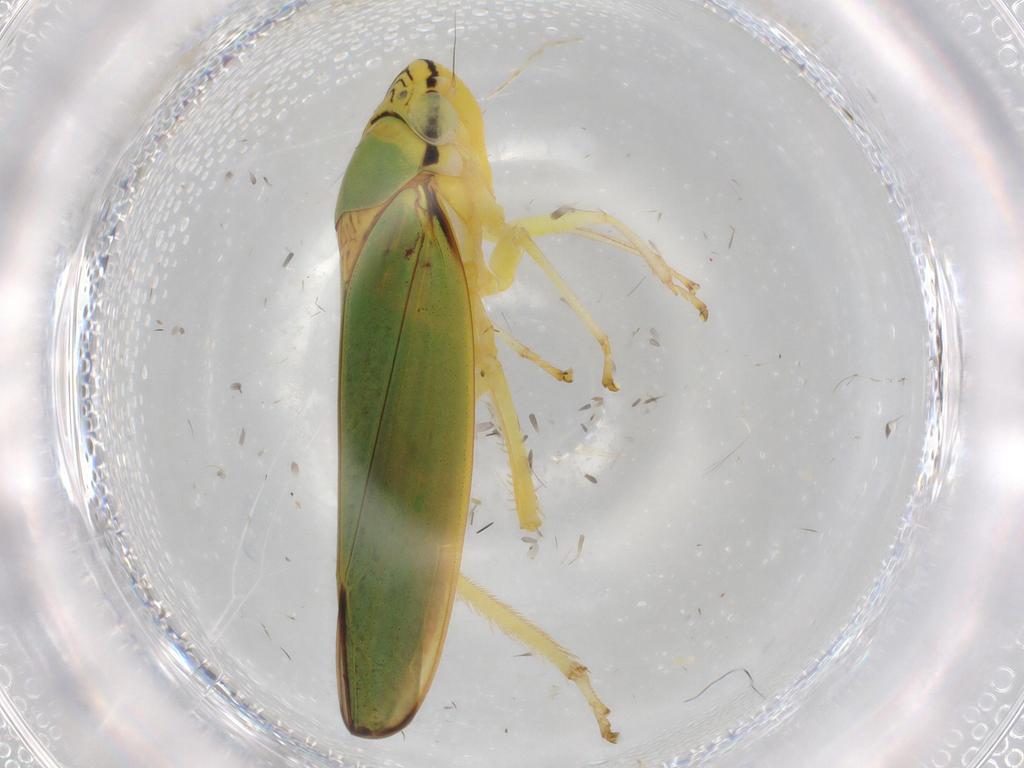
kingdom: Animalia
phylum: Arthropoda
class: Insecta
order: Hemiptera
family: Cicadellidae
